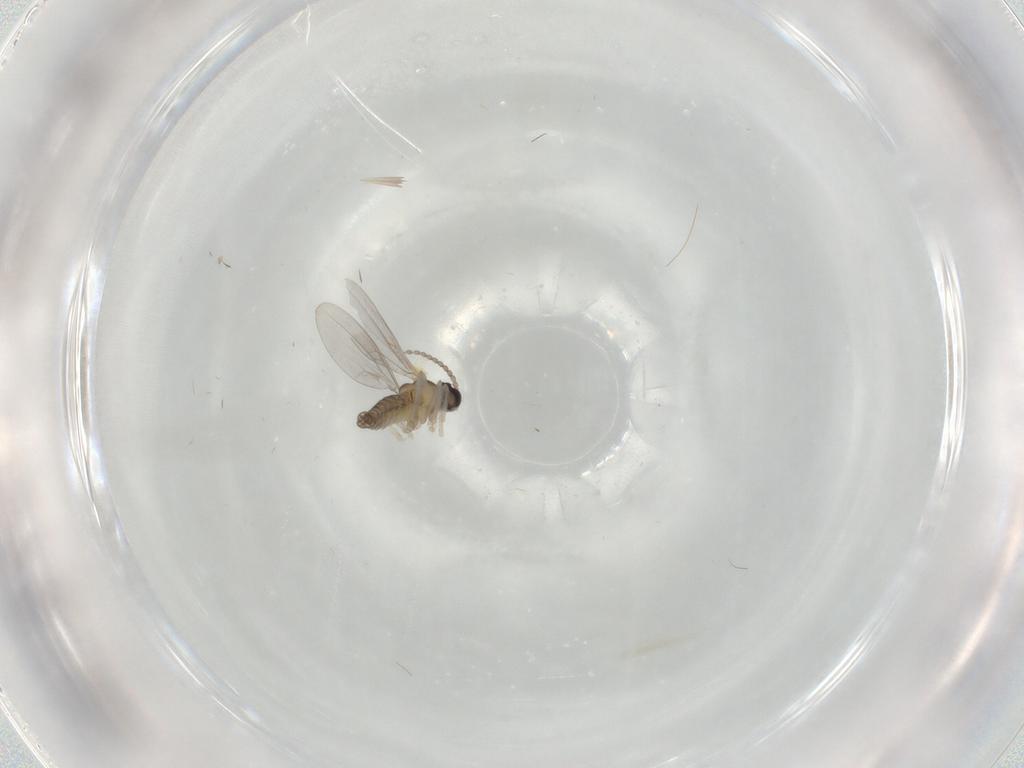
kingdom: Animalia
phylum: Arthropoda
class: Insecta
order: Diptera
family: Cecidomyiidae
